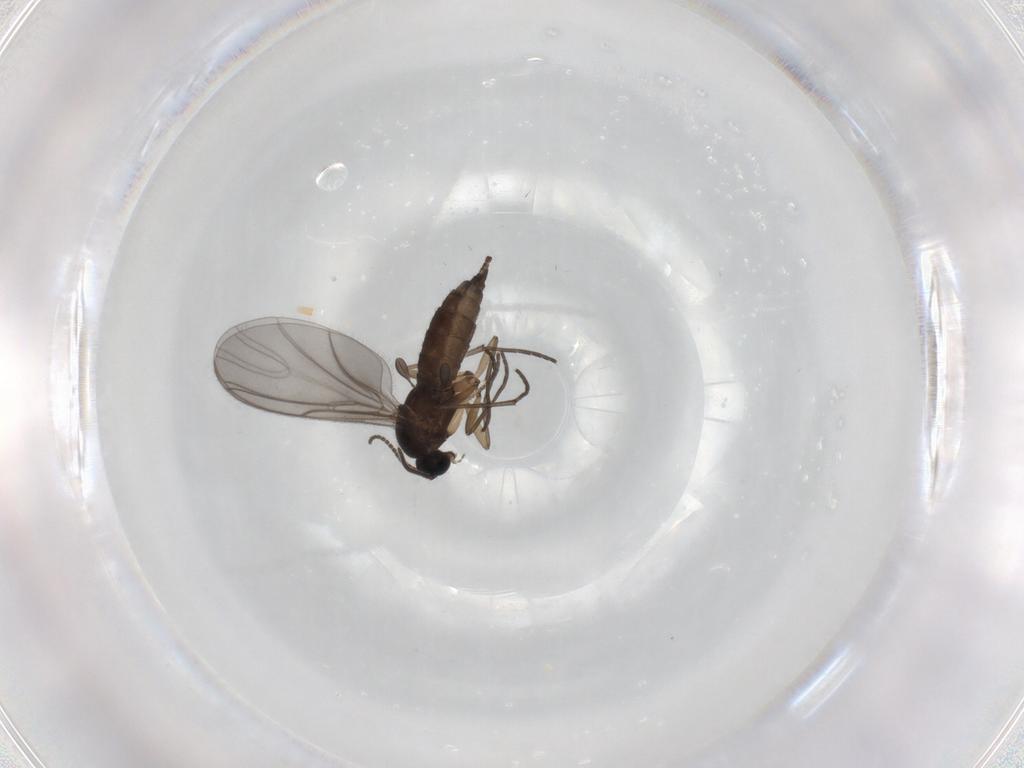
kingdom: Animalia
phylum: Arthropoda
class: Insecta
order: Diptera
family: Sciaridae
